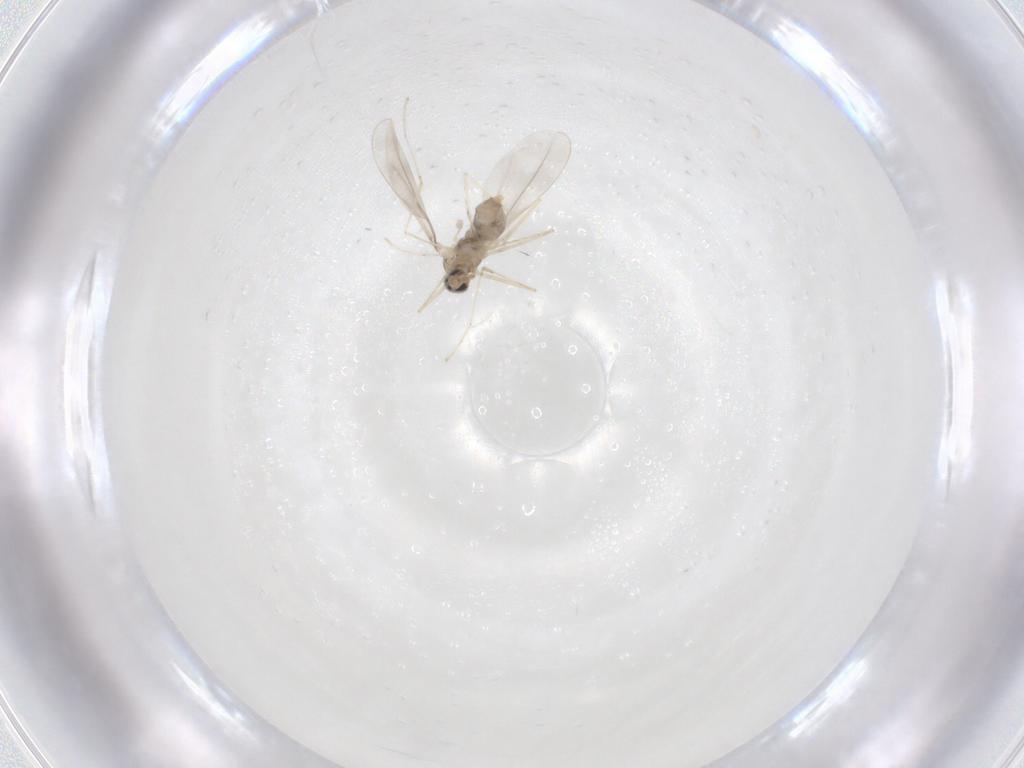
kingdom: Animalia
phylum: Arthropoda
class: Insecta
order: Diptera
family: Cecidomyiidae
